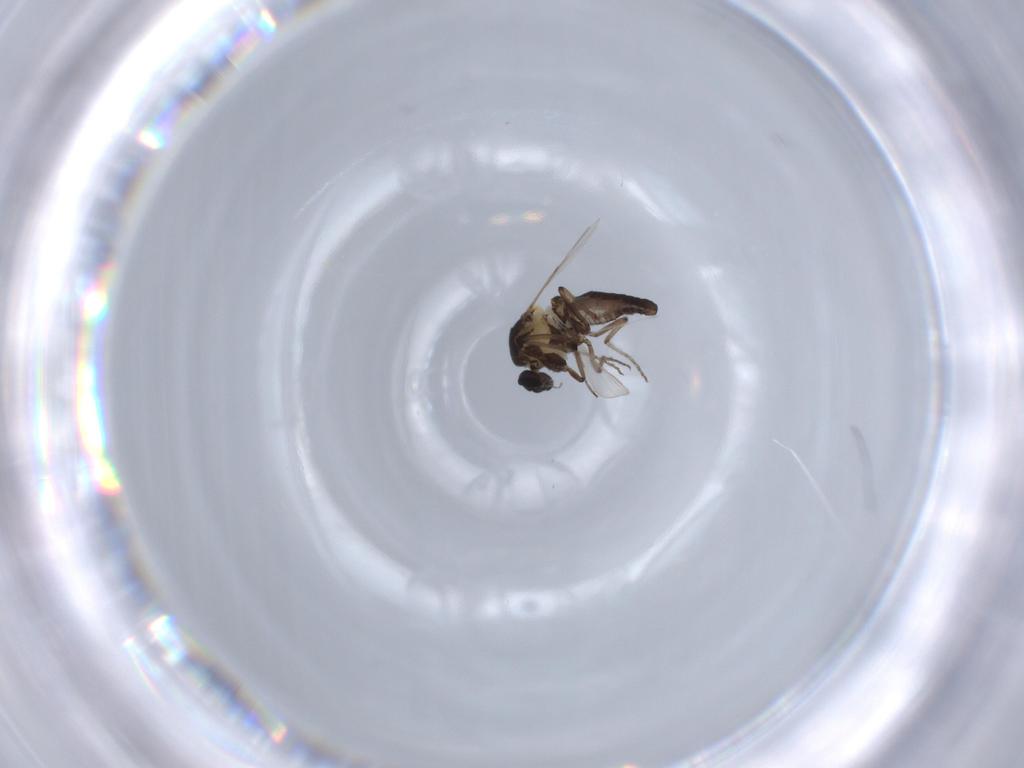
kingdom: Animalia
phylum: Arthropoda
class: Insecta
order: Diptera
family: Ceratopogonidae
